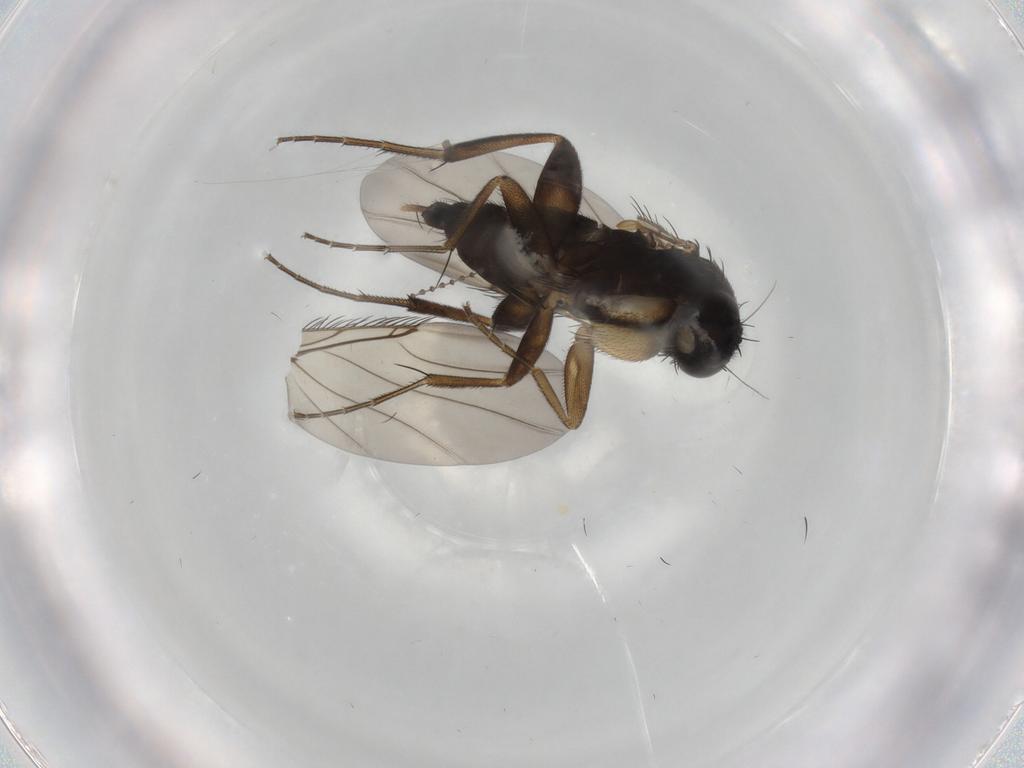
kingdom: Animalia
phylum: Arthropoda
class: Insecta
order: Diptera
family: Phoridae
